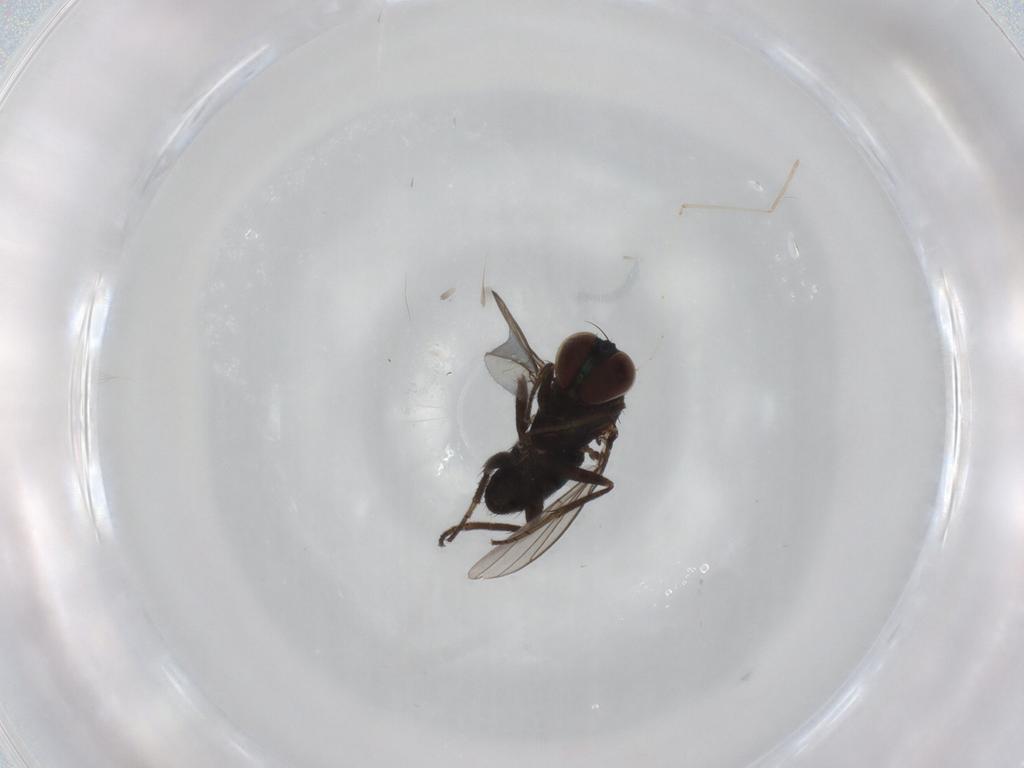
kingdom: Animalia
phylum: Arthropoda
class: Insecta
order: Diptera
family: Dolichopodidae
